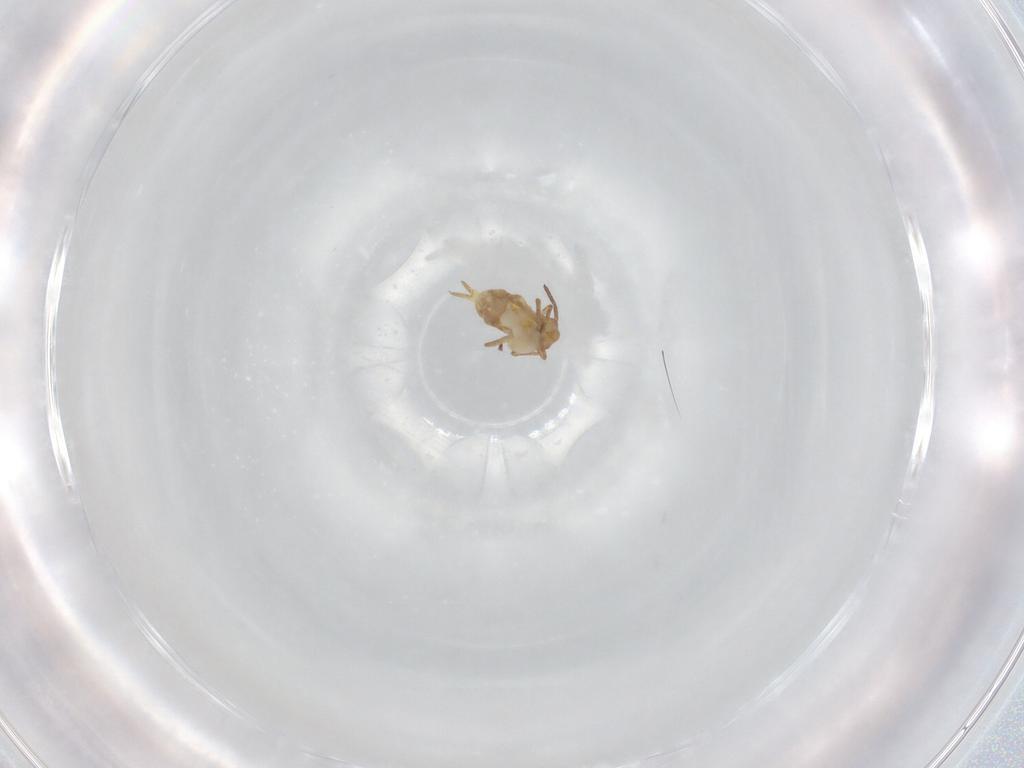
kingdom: Animalia
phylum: Arthropoda
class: Collembola
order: Symphypleona
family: Bourletiellidae
